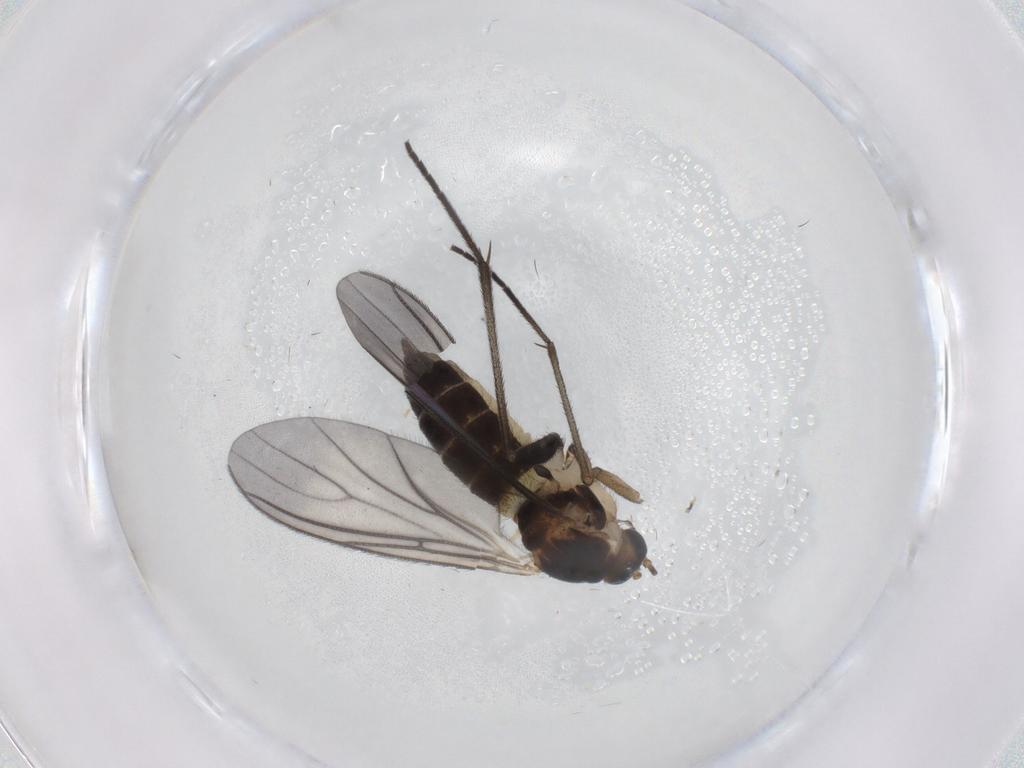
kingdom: Animalia
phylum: Arthropoda
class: Insecta
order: Diptera
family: Sciaridae
